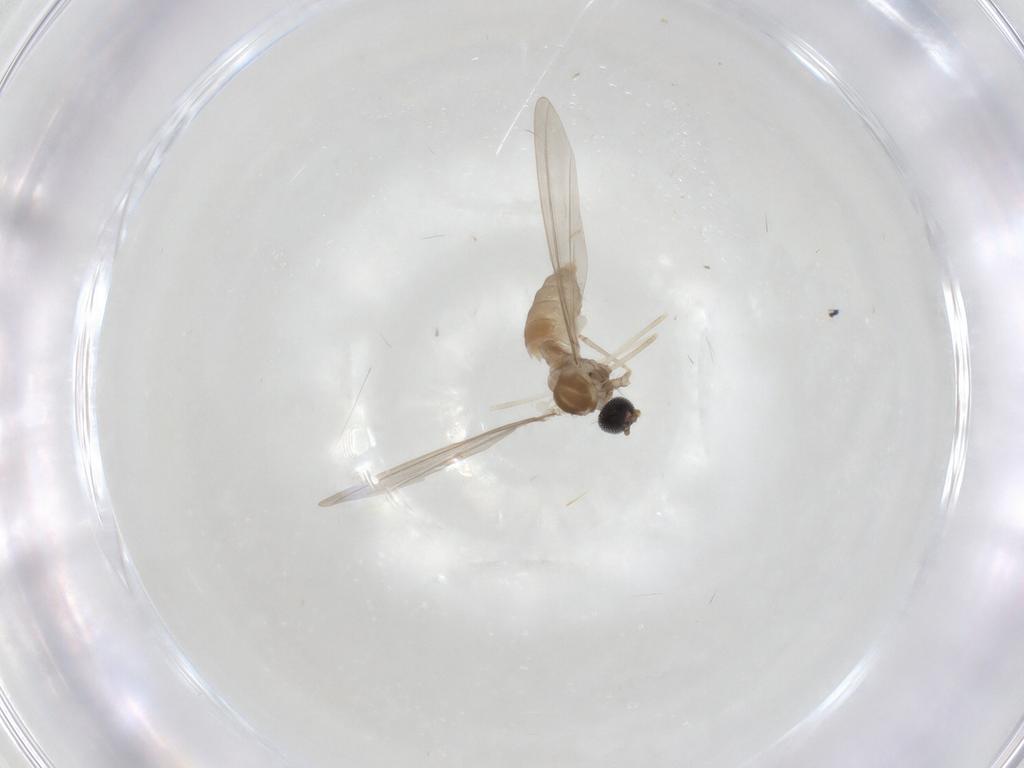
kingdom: Animalia
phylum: Arthropoda
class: Insecta
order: Diptera
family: Cecidomyiidae
